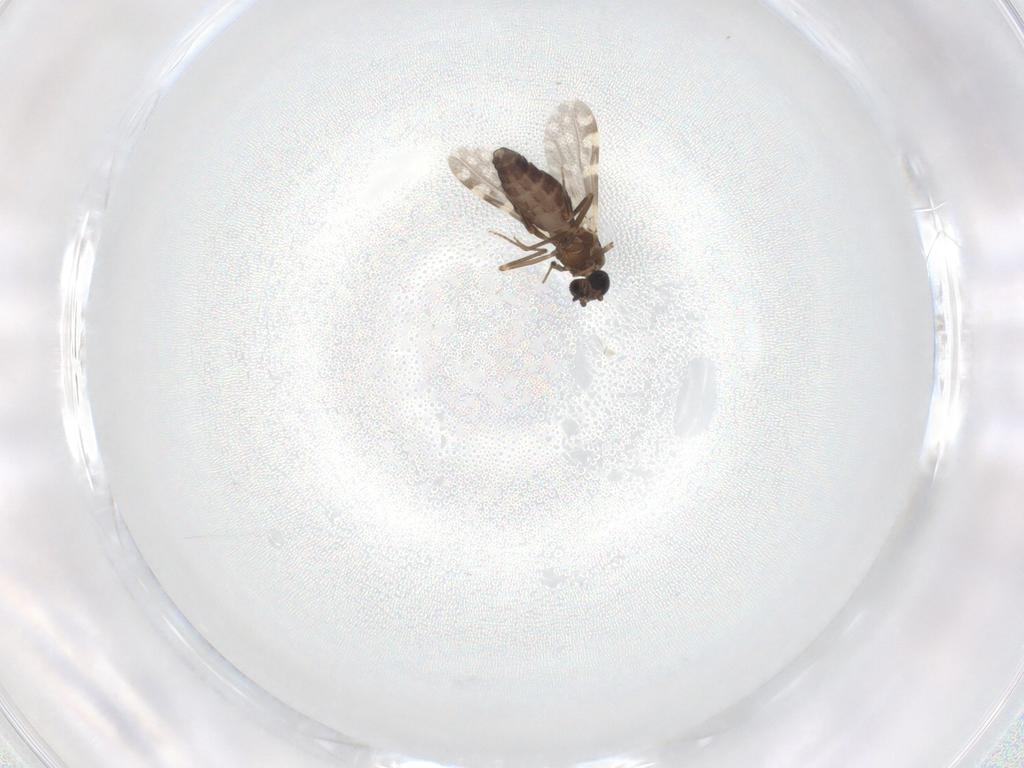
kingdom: Animalia
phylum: Arthropoda
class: Insecta
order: Diptera
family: Ceratopogonidae
